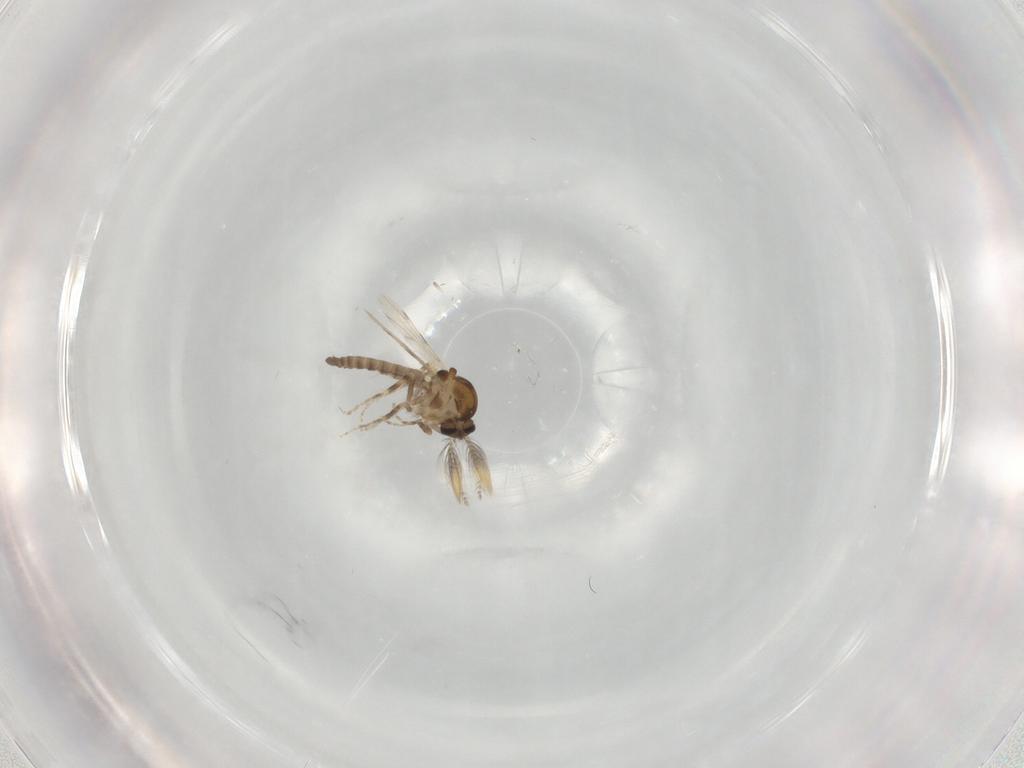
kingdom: Animalia
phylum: Arthropoda
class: Insecta
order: Diptera
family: Ceratopogonidae
